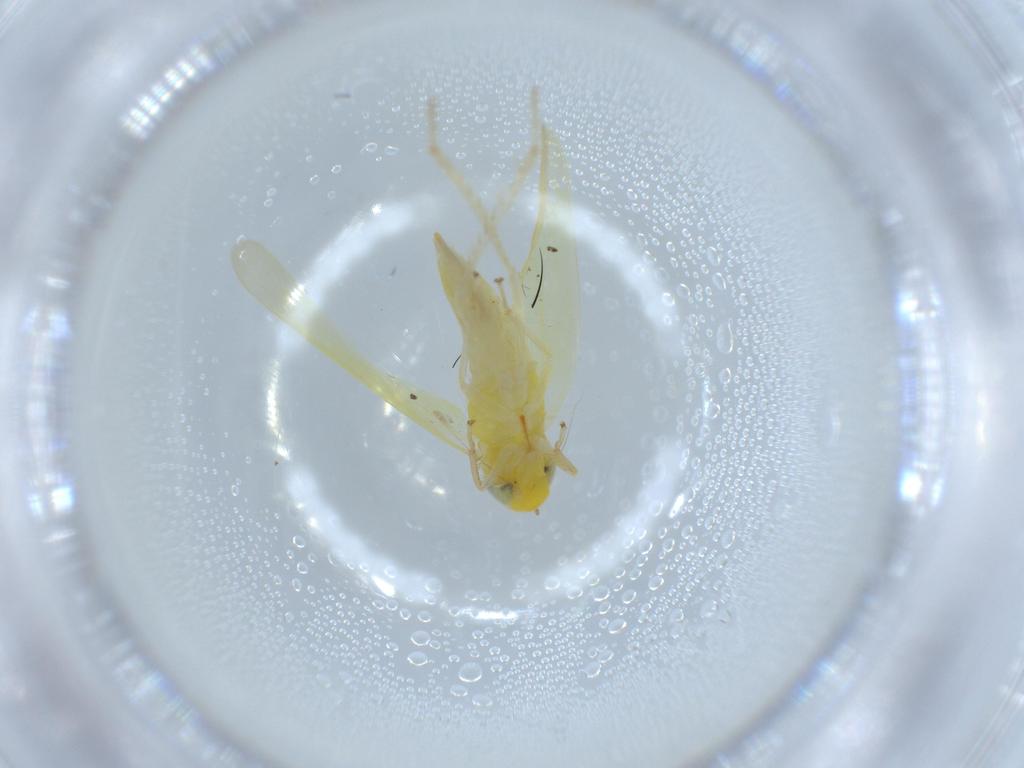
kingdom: Animalia
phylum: Arthropoda
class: Insecta
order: Hemiptera
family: Cicadellidae
